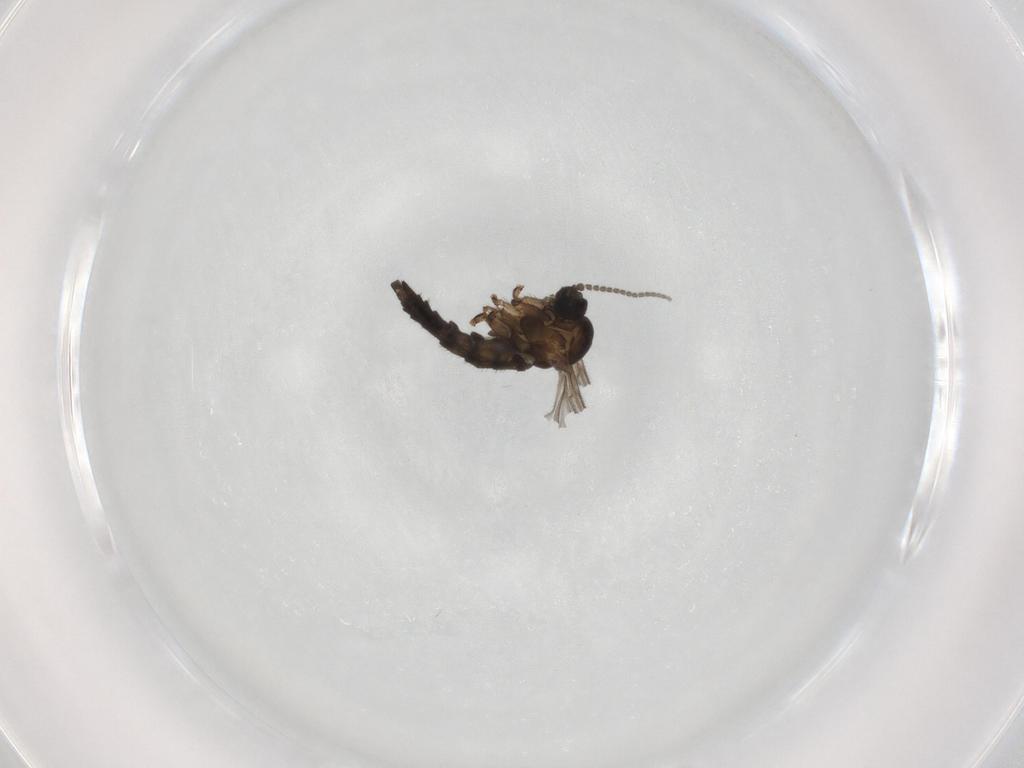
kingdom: Animalia
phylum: Arthropoda
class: Insecta
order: Diptera
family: Sciaridae
